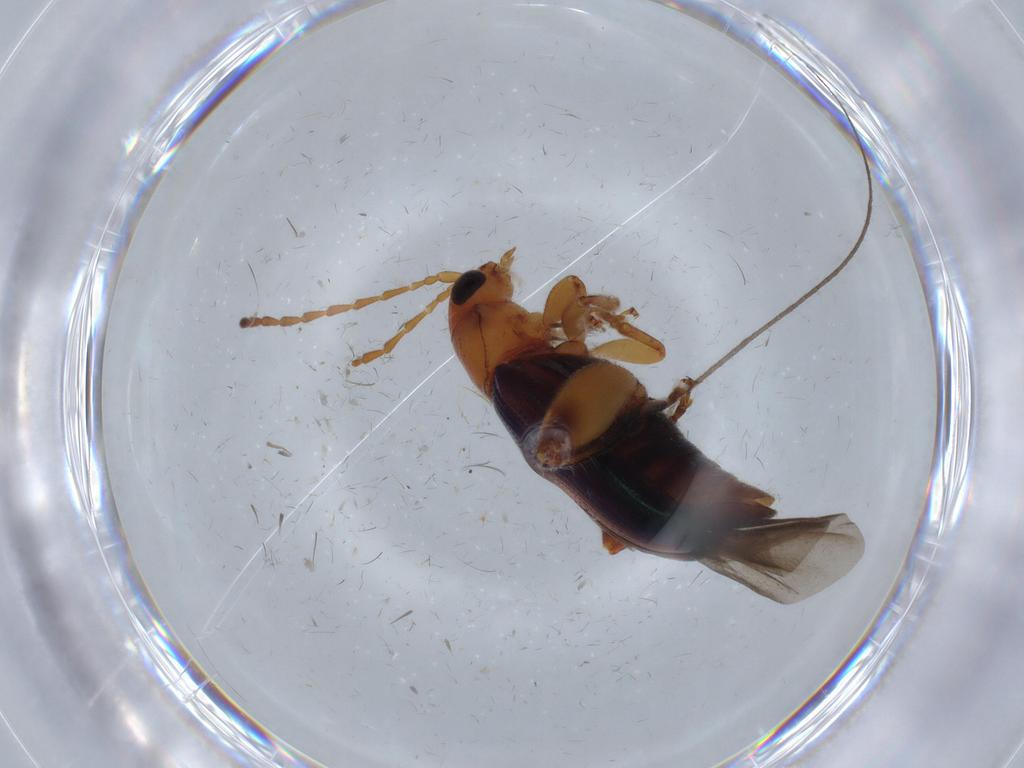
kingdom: Animalia
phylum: Arthropoda
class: Insecta
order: Coleoptera
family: Chrysomelidae
